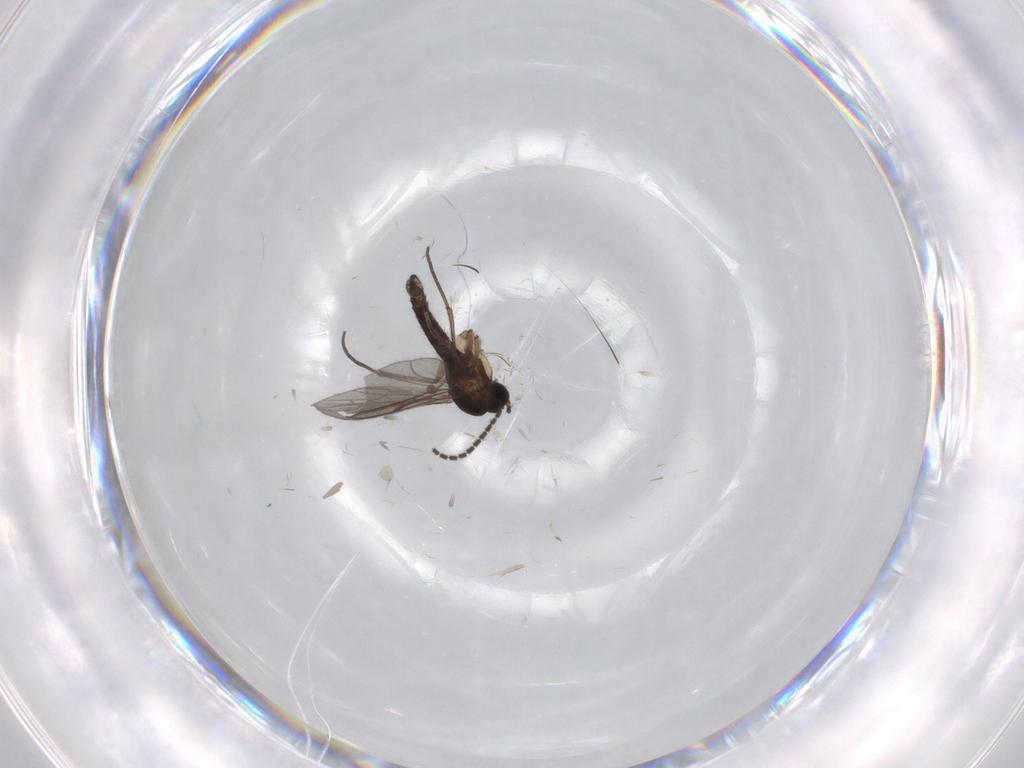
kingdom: Animalia
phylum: Arthropoda
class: Insecta
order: Diptera
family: Sciaridae
